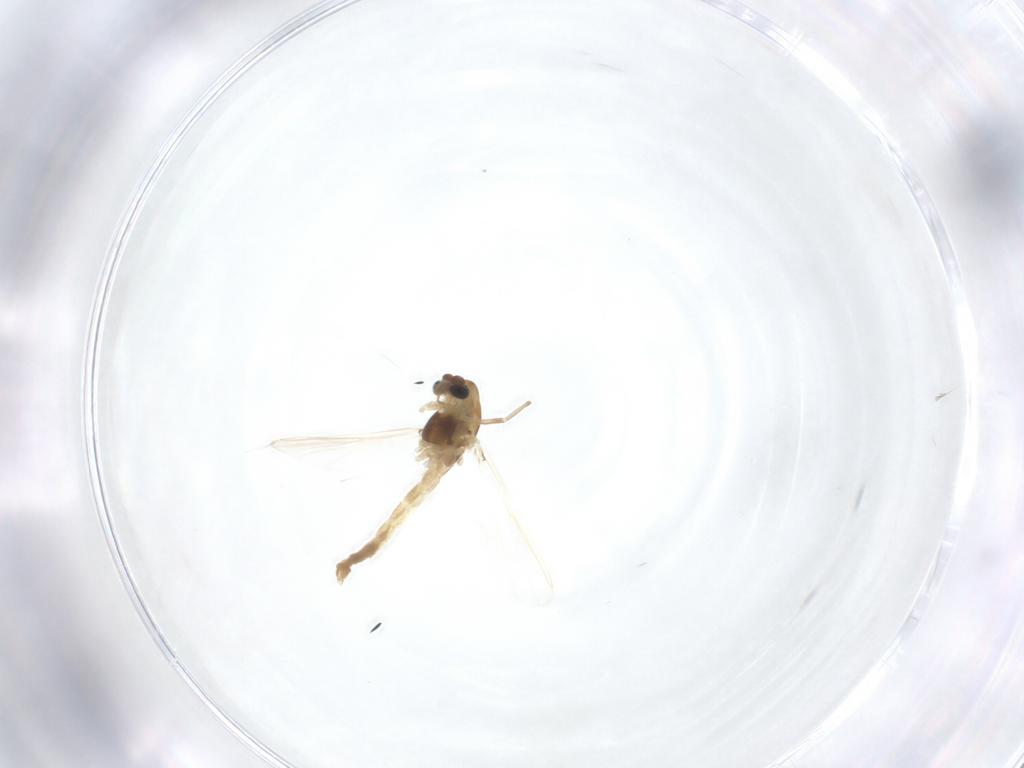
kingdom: Animalia
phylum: Arthropoda
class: Insecta
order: Diptera
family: Chironomidae
